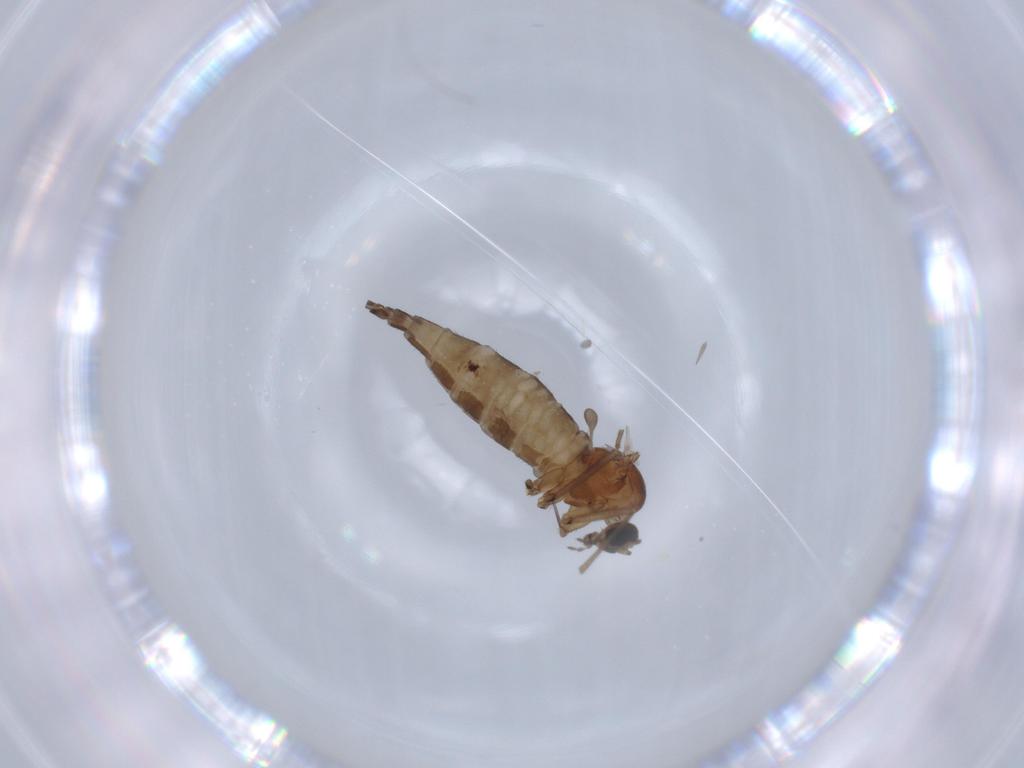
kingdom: Animalia
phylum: Arthropoda
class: Insecta
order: Diptera
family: Sciaridae
